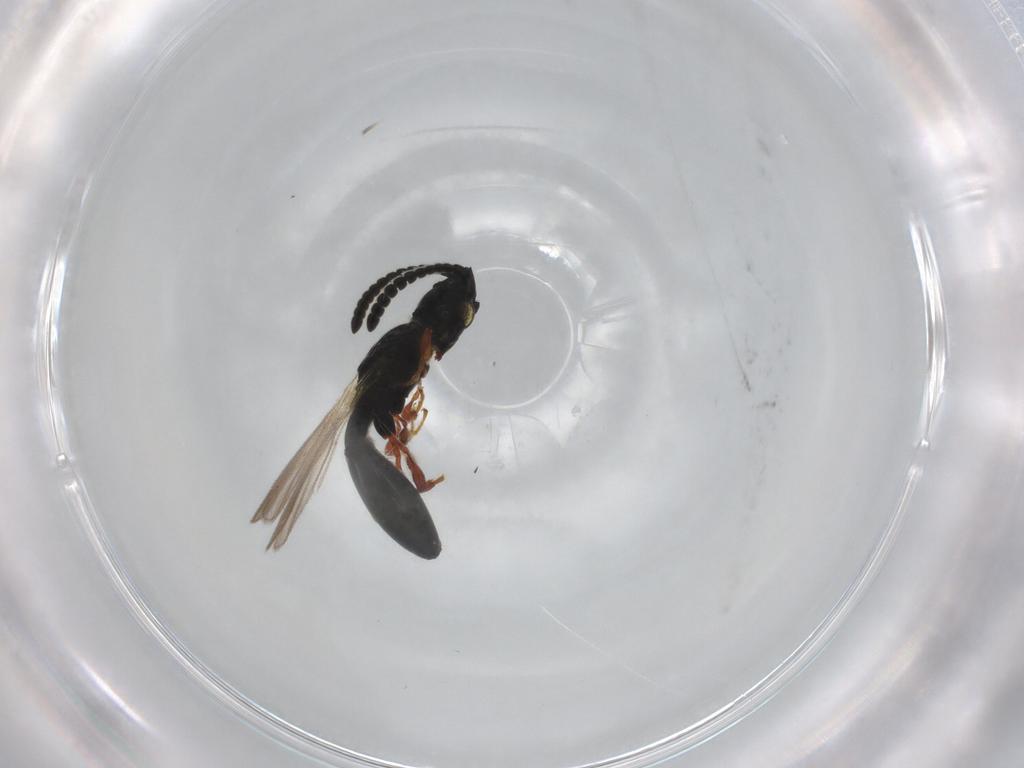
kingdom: Animalia
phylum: Arthropoda
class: Insecta
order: Hymenoptera
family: Diapriidae
